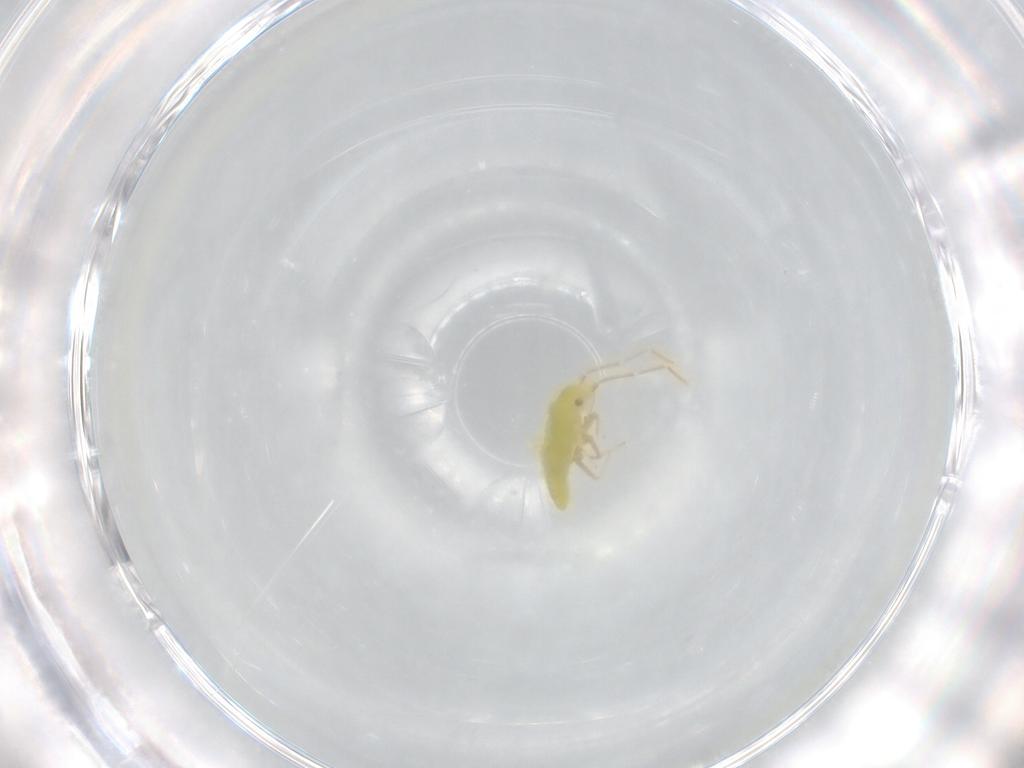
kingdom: Animalia
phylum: Arthropoda
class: Insecta
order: Hemiptera
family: Miridae
